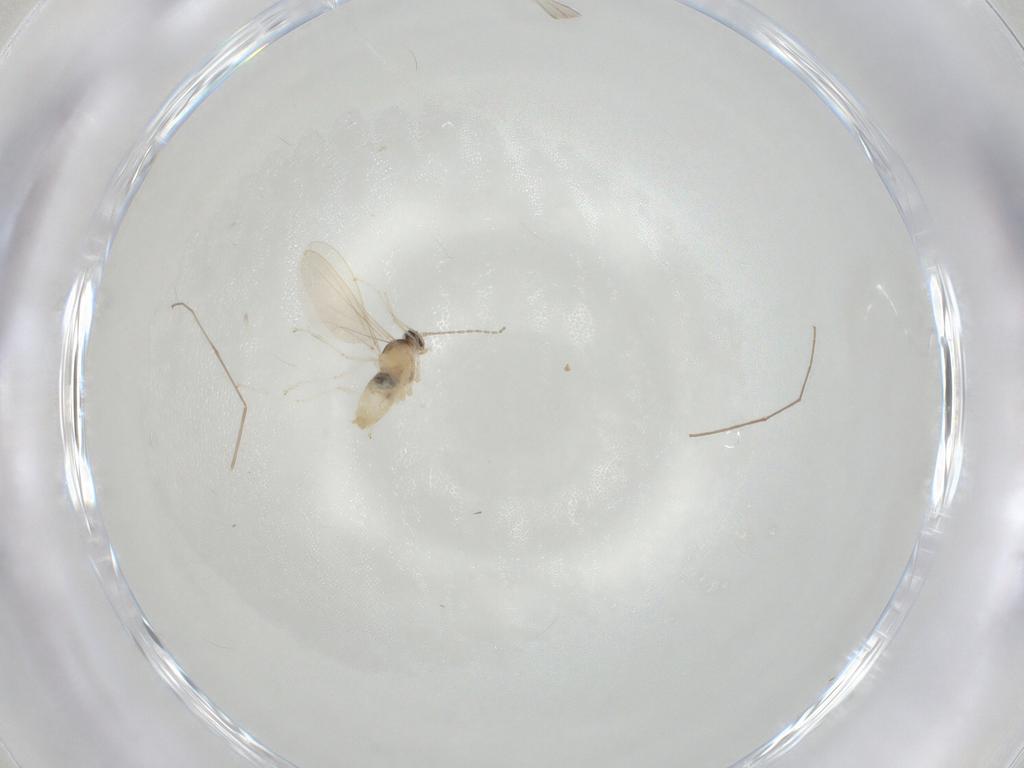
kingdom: Animalia
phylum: Arthropoda
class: Insecta
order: Diptera
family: Cecidomyiidae
